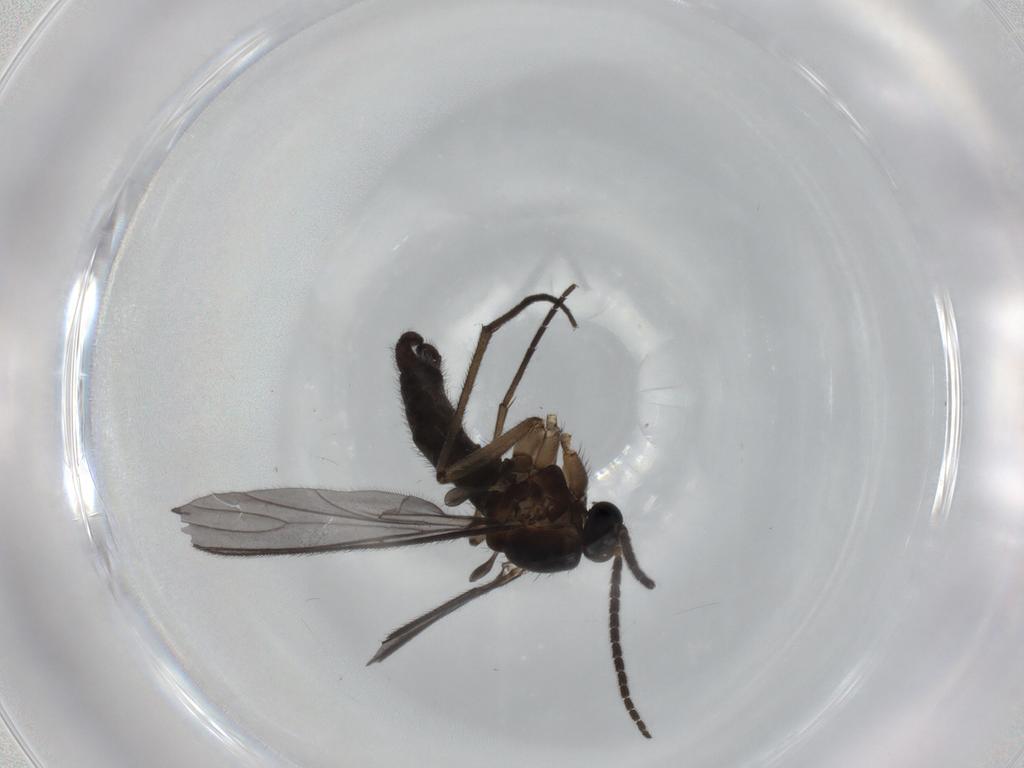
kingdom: Animalia
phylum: Arthropoda
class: Insecta
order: Diptera
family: Sciaridae
